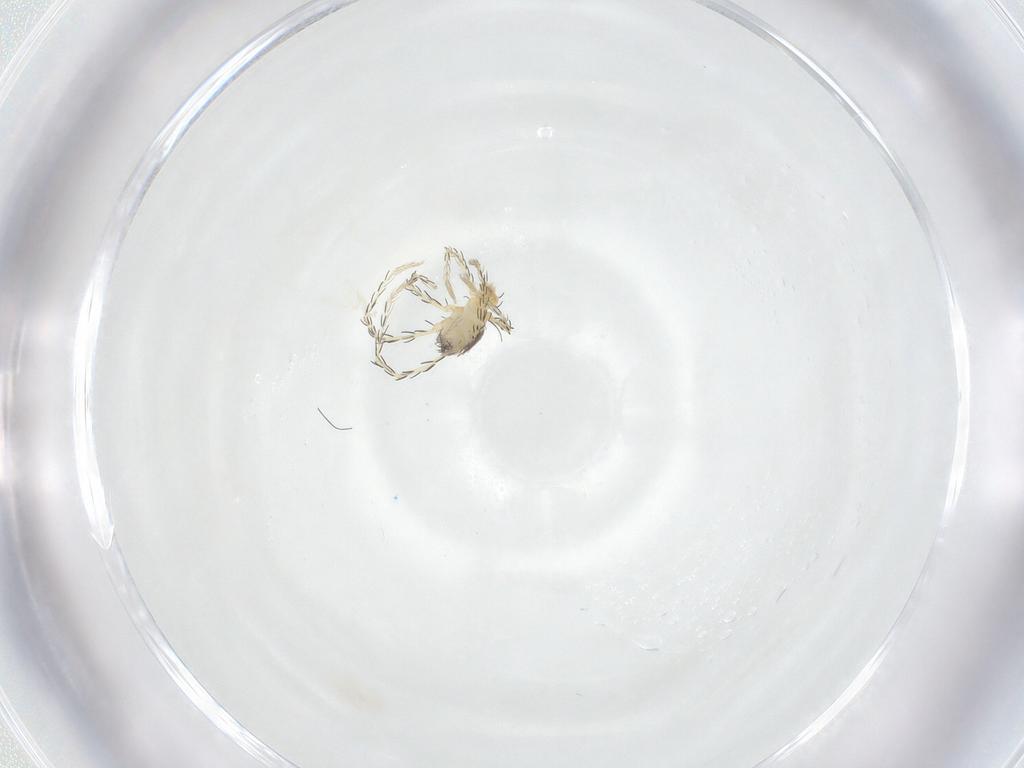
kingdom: Animalia
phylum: Arthropoda
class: Arachnida
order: Trombidiformes
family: Erythraeidae
